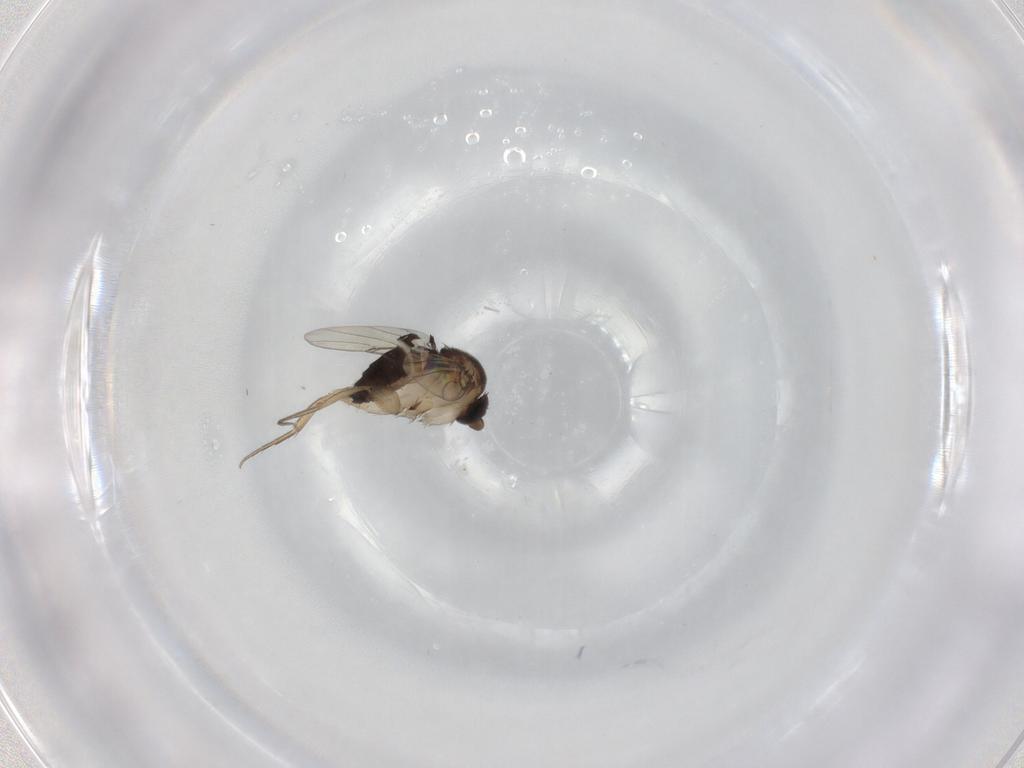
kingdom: Animalia
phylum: Arthropoda
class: Insecta
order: Diptera
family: Phoridae
